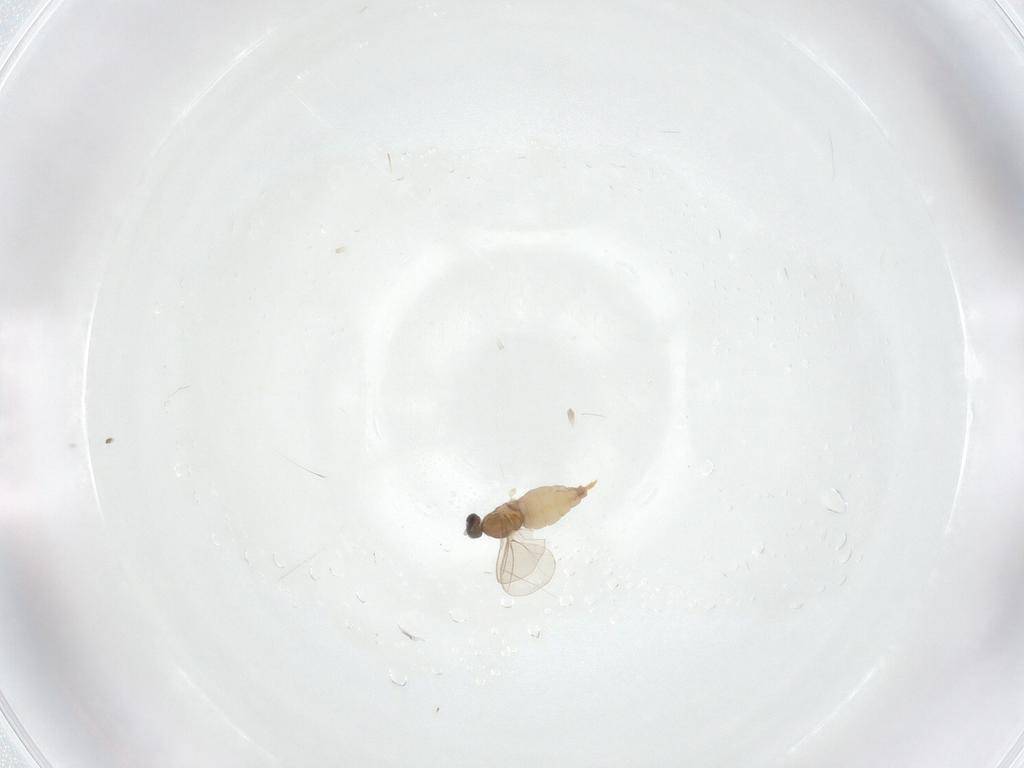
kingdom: Animalia
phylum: Arthropoda
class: Insecta
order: Diptera
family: Cecidomyiidae
